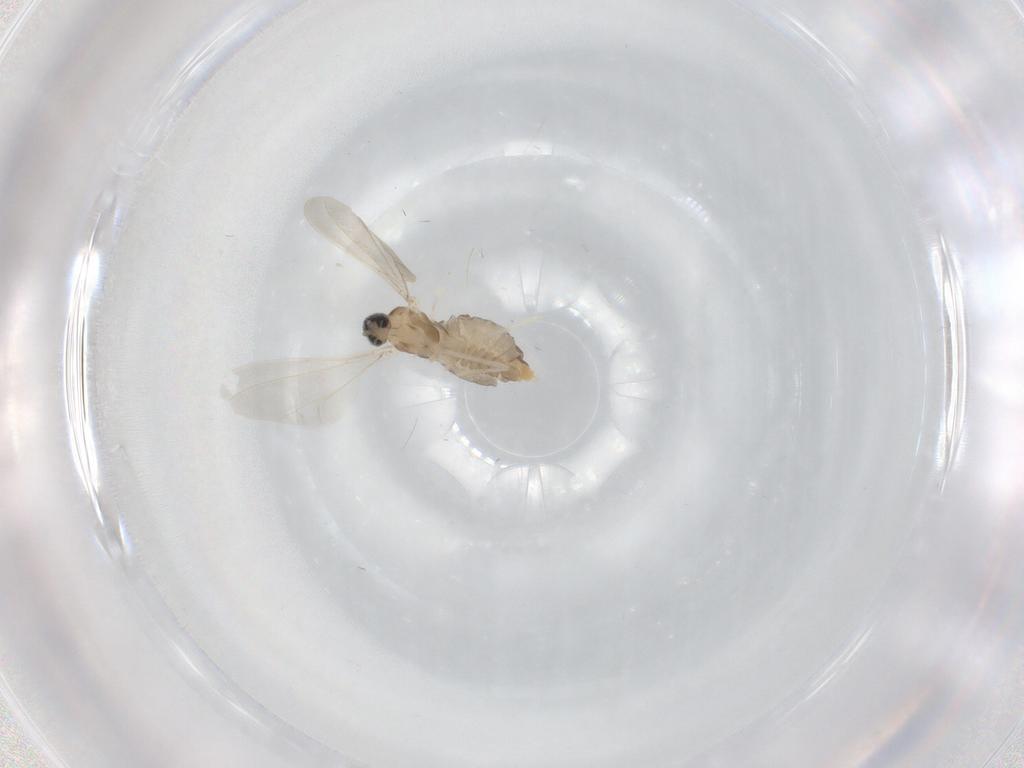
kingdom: Animalia
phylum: Arthropoda
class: Insecta
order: Diptera
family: Cecidomyiidae
